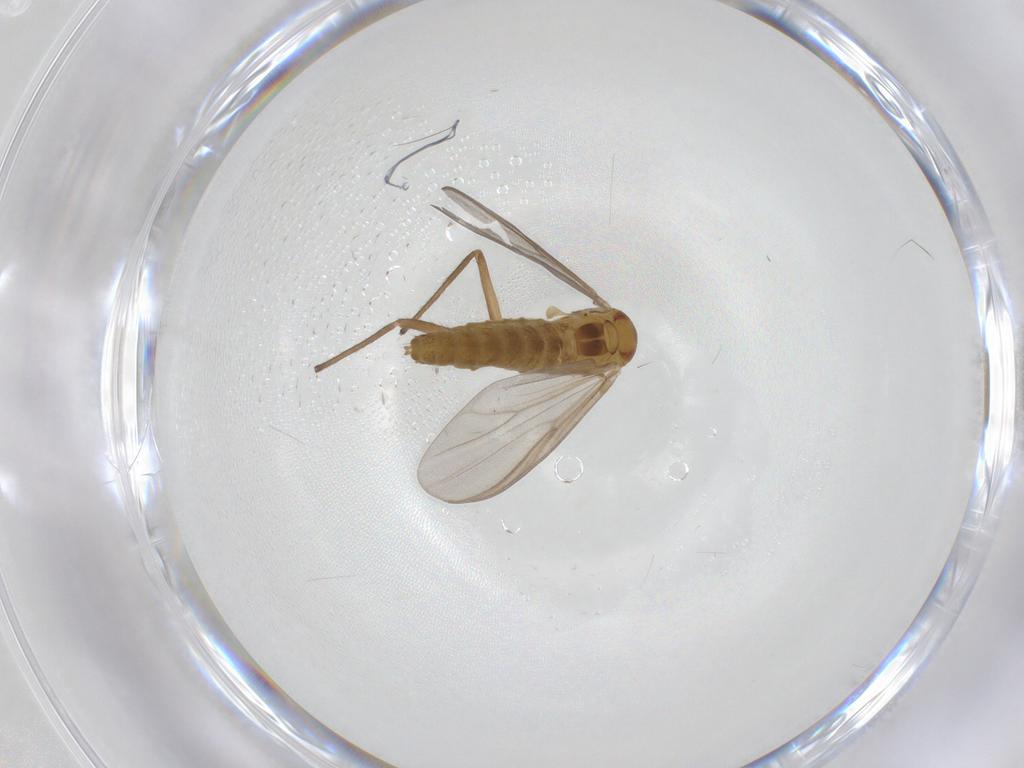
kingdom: Animalia
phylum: Arthropoda
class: Insecta
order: Diptera
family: Chironomidae
